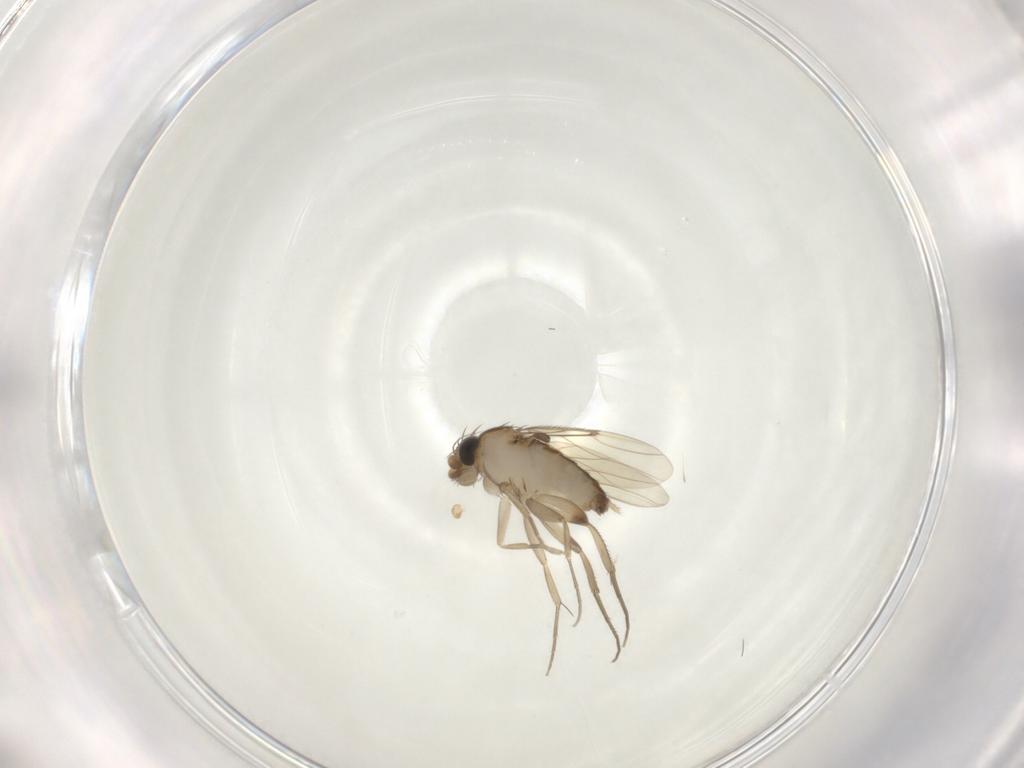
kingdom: Animalia
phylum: Arthropoda
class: Insecta
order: Diptera
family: Phoridae
